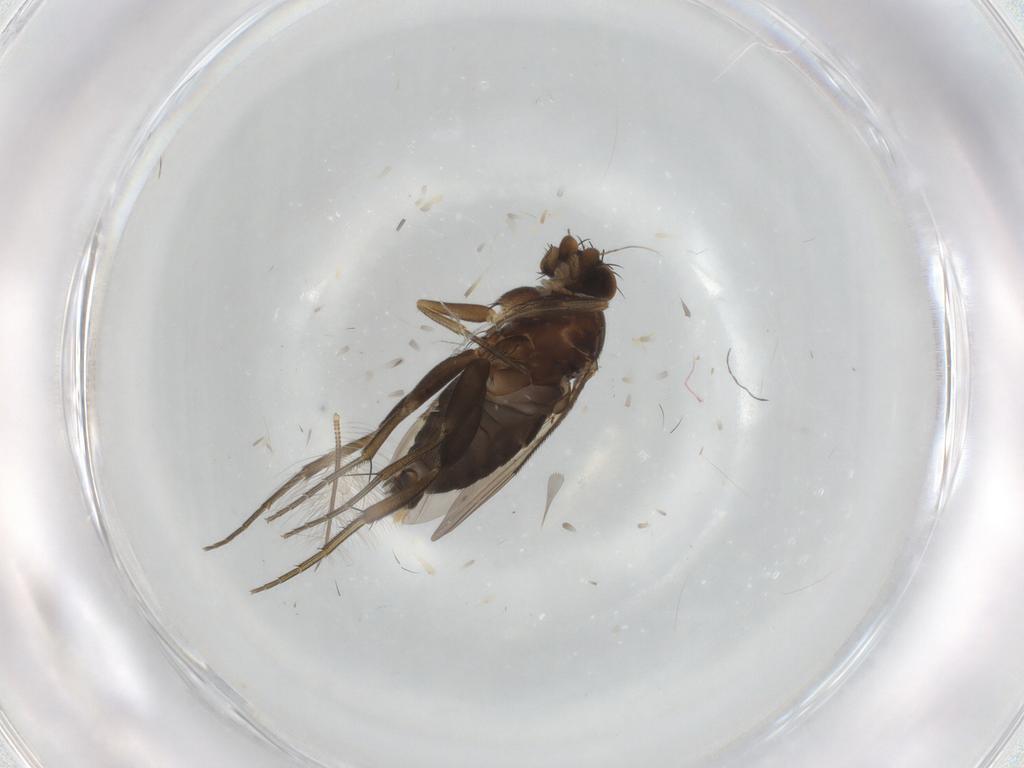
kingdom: Animalia
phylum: Arthropoda
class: Insecta
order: Diptera
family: Phoridae
